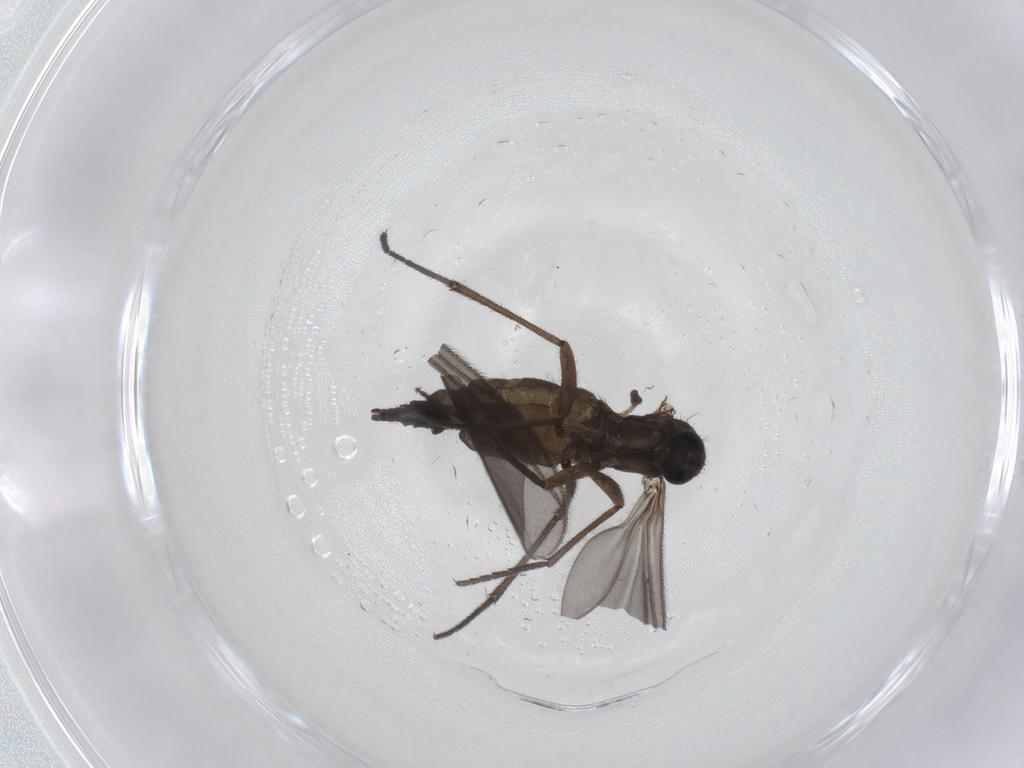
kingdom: Animalia
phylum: Arthropoda
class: Insecta
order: Diptera
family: Sciaridae
